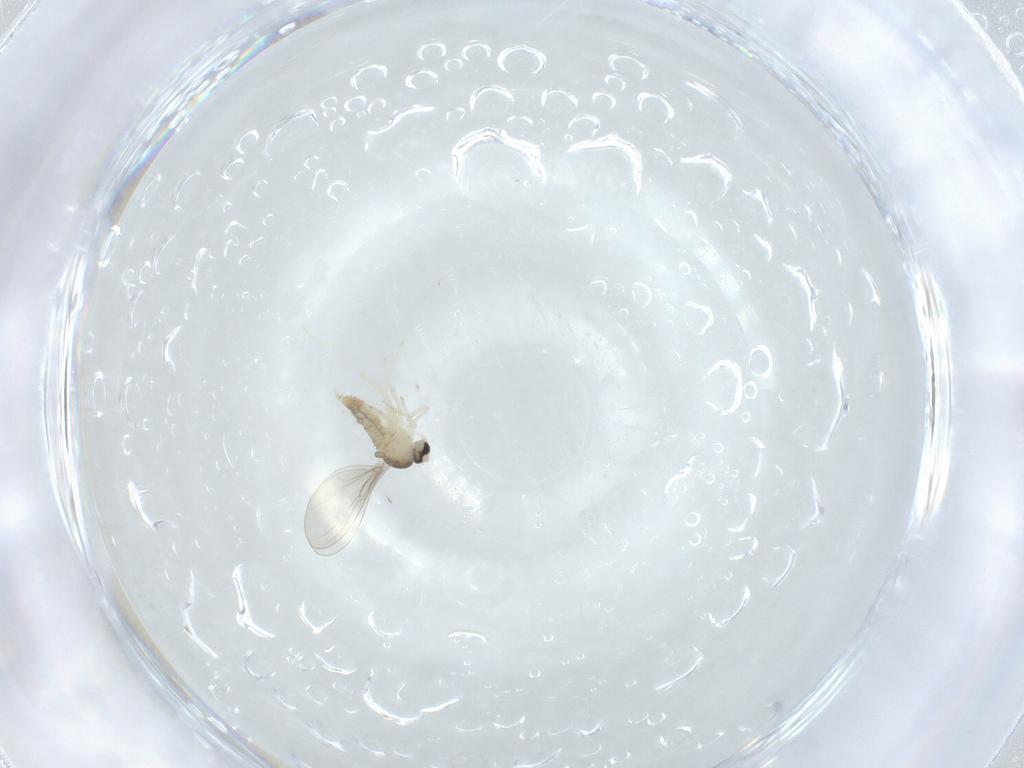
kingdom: Animalia
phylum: Arthropoda
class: Insecta
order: Diptera
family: Cecidomyiidae
